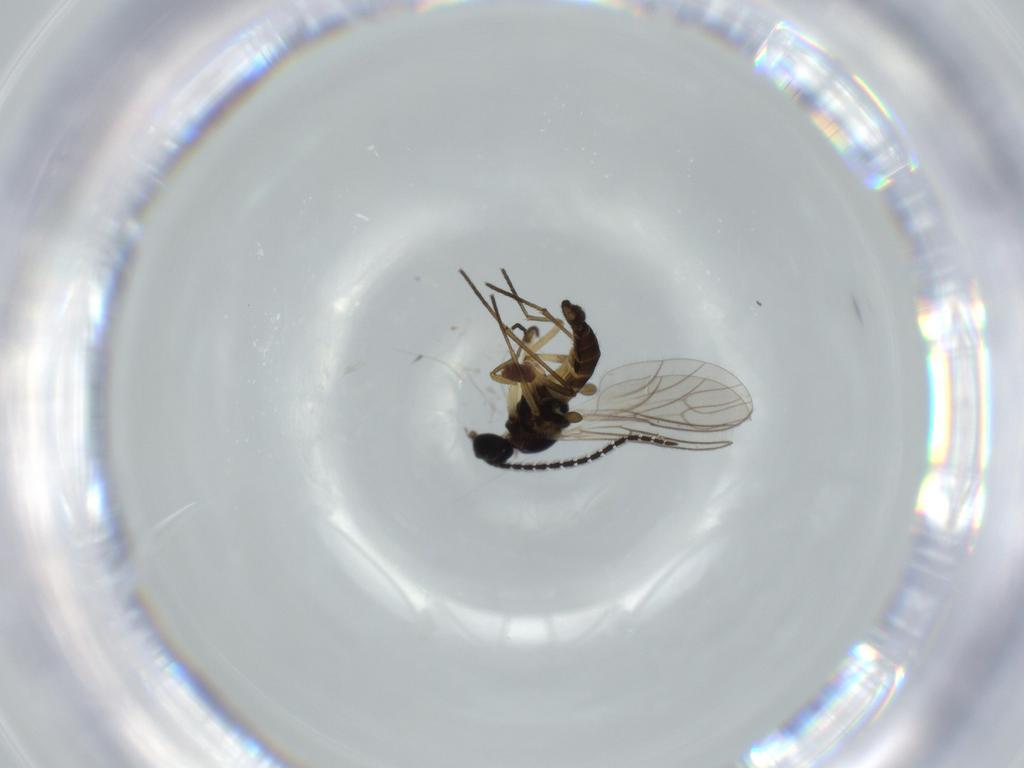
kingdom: Animalia
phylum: Arthropoda
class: Insecta
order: Diptera
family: Sciaridae
